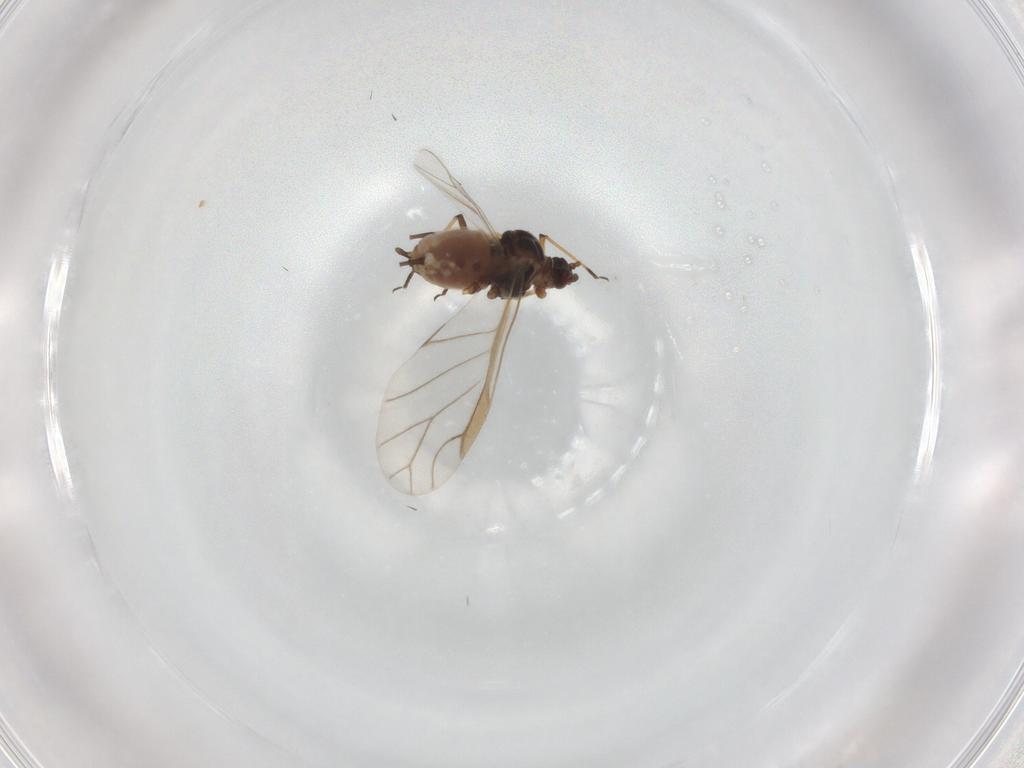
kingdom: Animalia
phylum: Arthropoda
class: Insecta
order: Hemiptera
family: Aphididae
